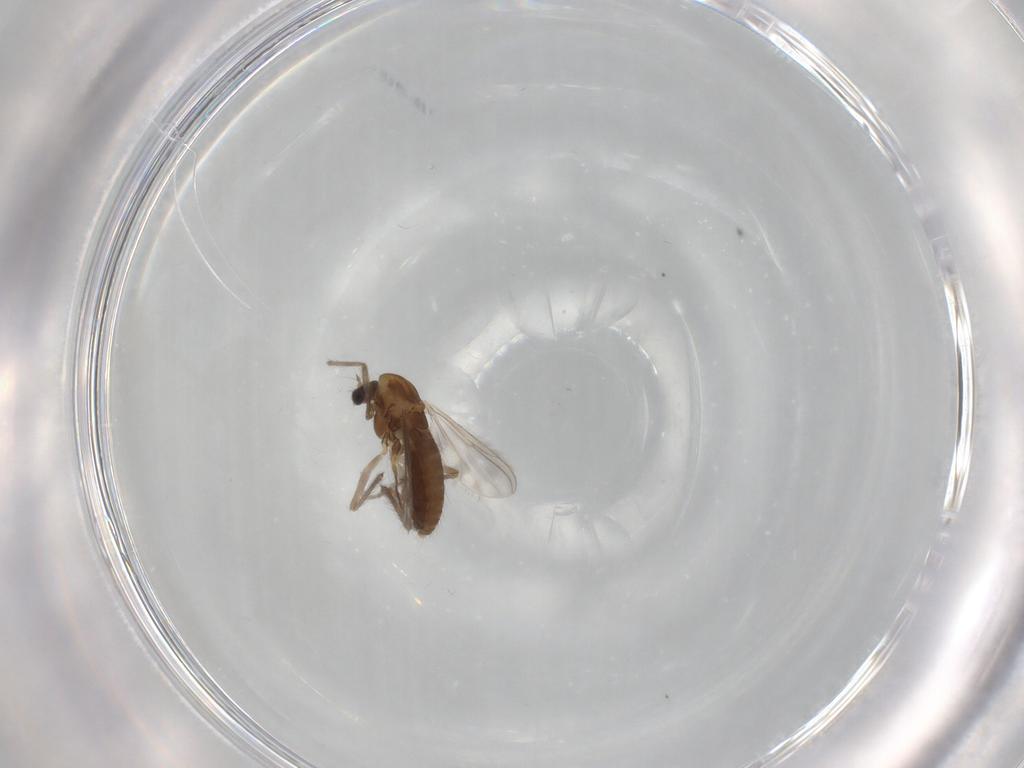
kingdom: Animalia
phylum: Arthropoda
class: Insecta
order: Diptera
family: Chironomidae
